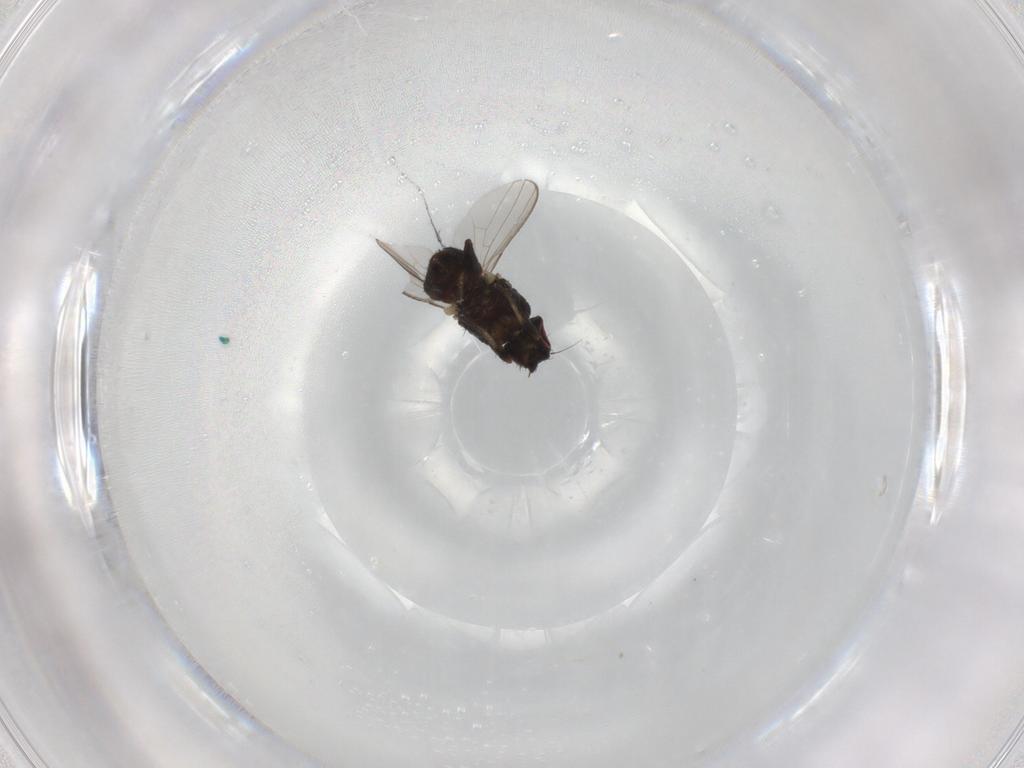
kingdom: Animalia
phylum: Arthropoda
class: Insecta
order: Diptera
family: Milichiidae
